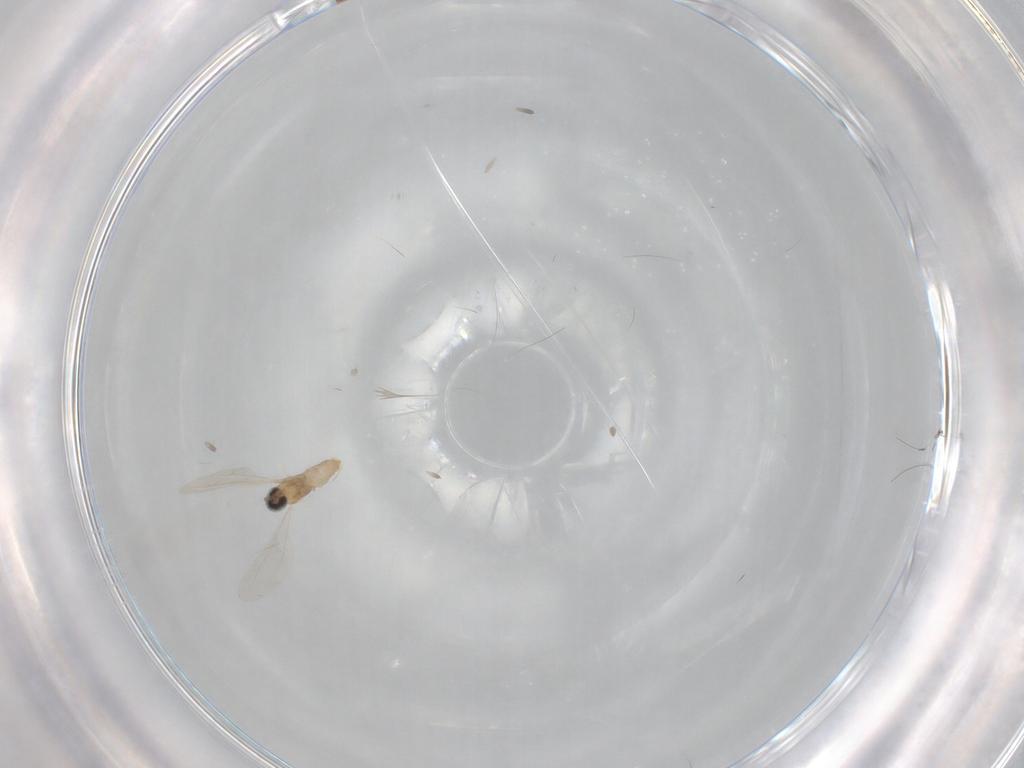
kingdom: Animalia
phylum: Arthropoda
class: Insecta
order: Diptera
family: Cecidomyiidae
